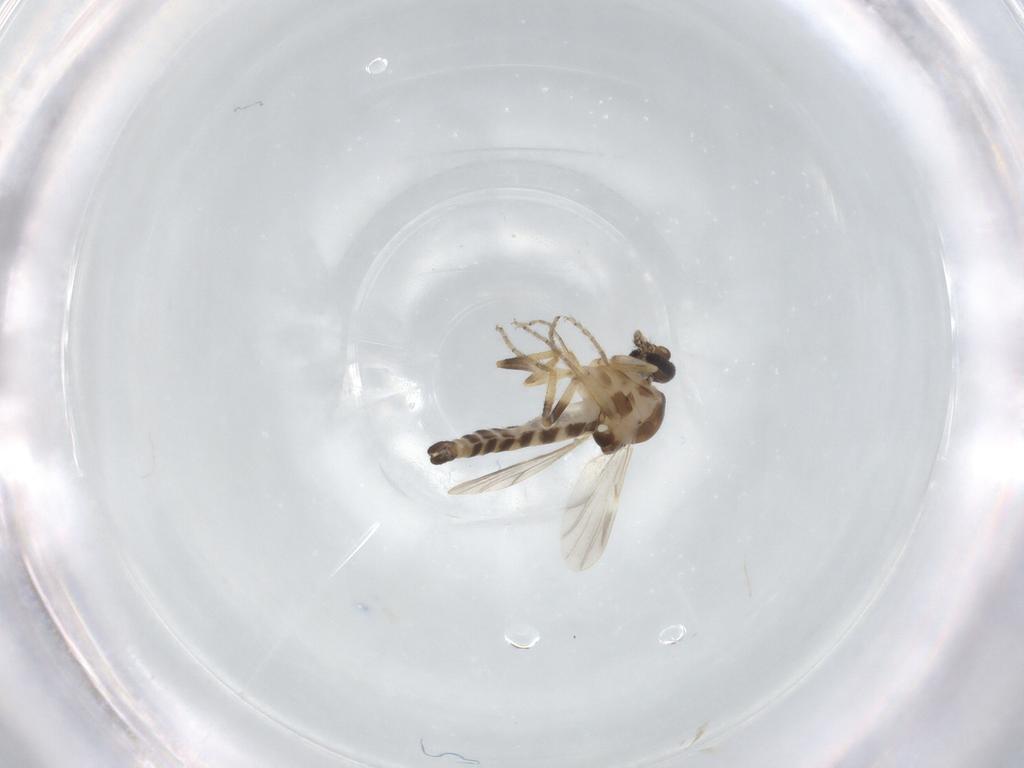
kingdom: Animalia
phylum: Arthropoda
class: Insecta
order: Diptera
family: Ceratopogonidae
